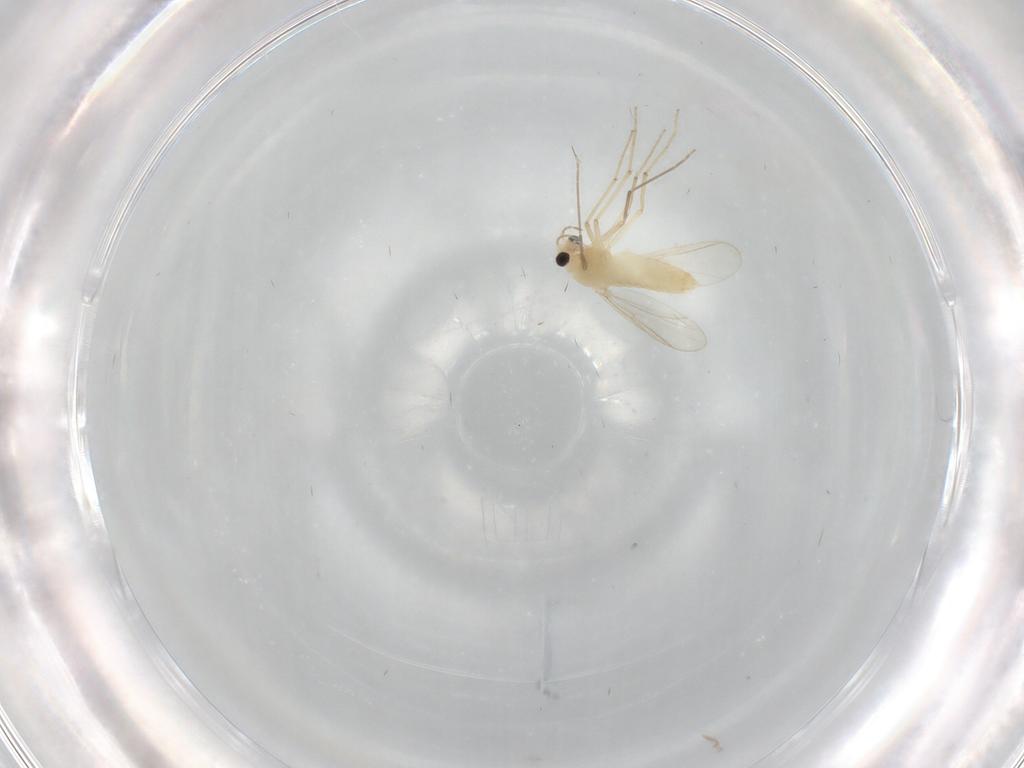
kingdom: Animalia
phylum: Arthropoda
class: Insecta
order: Diptera
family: Chironomidae
